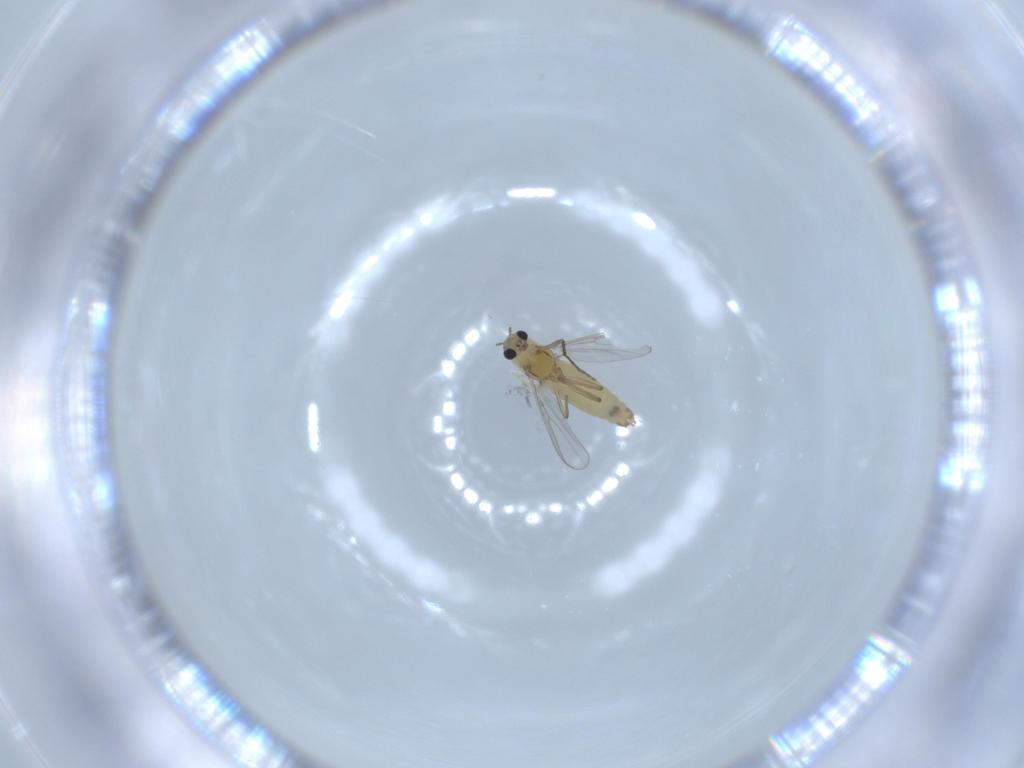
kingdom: Animalia
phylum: Arthropoda
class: Insecta
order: Diptera
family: Chironomidae
